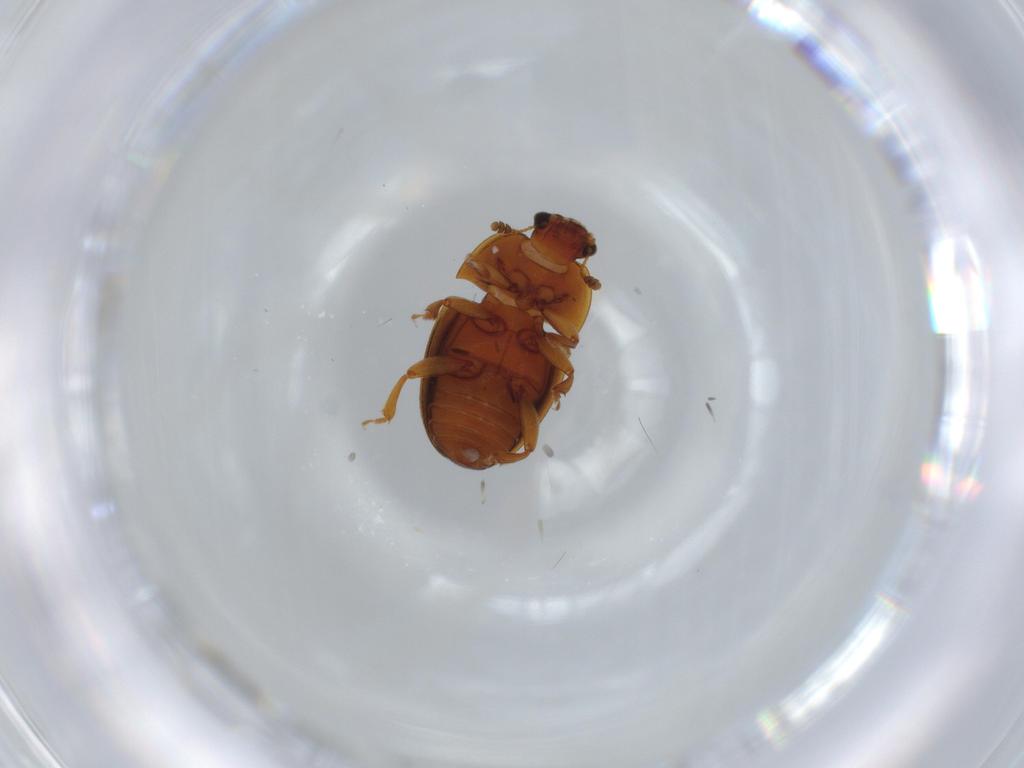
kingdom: Animalia
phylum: Arthropoda
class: Insecta
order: Coleoptera
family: Nitidulidae
